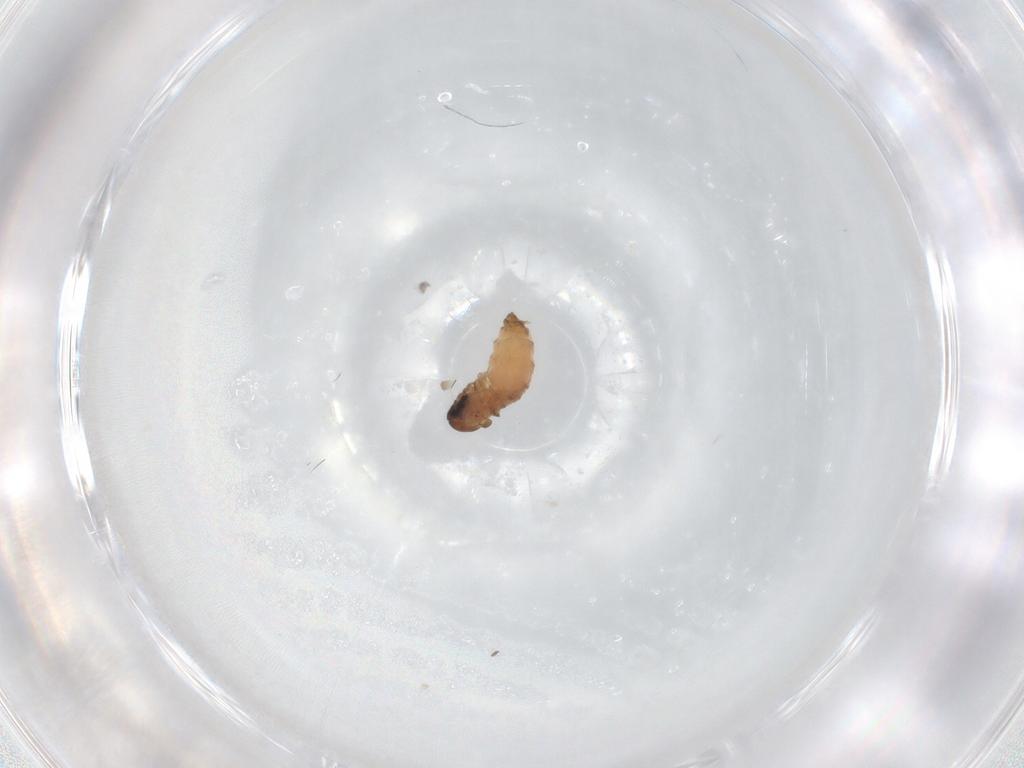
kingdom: Animalia
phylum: Arthropoda
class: Insecta
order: Diptera
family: Psychodidae
